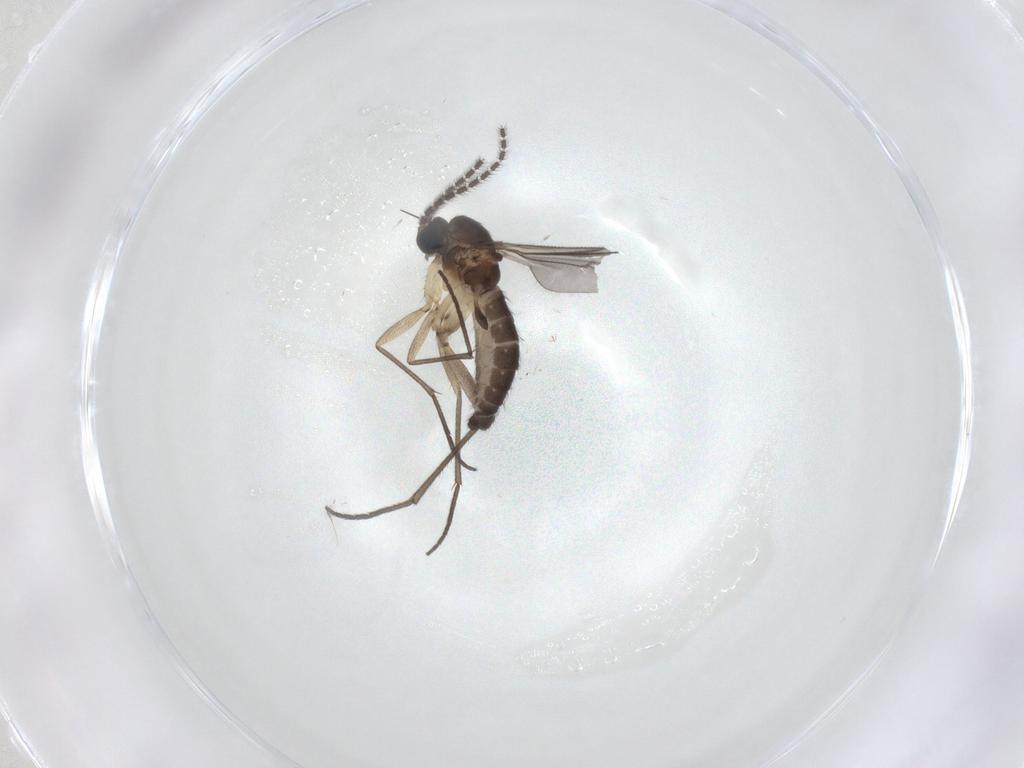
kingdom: Animalia
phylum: Arthropoda
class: Insecta
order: Diptera
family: Sciaridae
